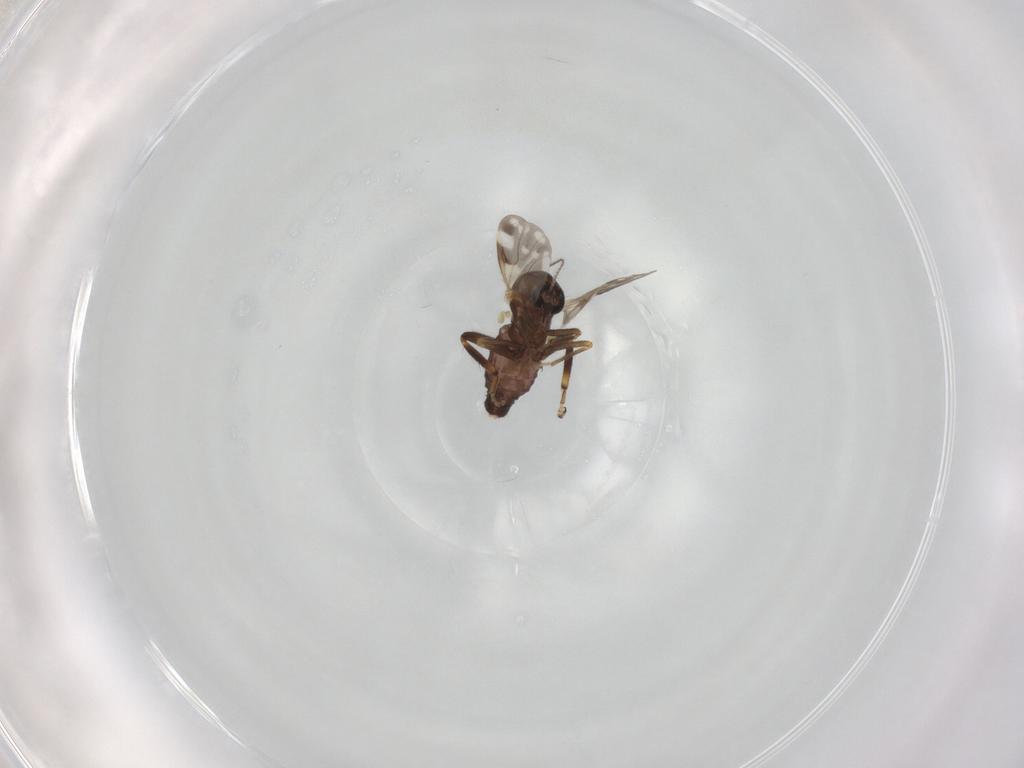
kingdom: Animalia
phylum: Arthropoda
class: Insecta
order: Diptera
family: Ceratopogonidae
